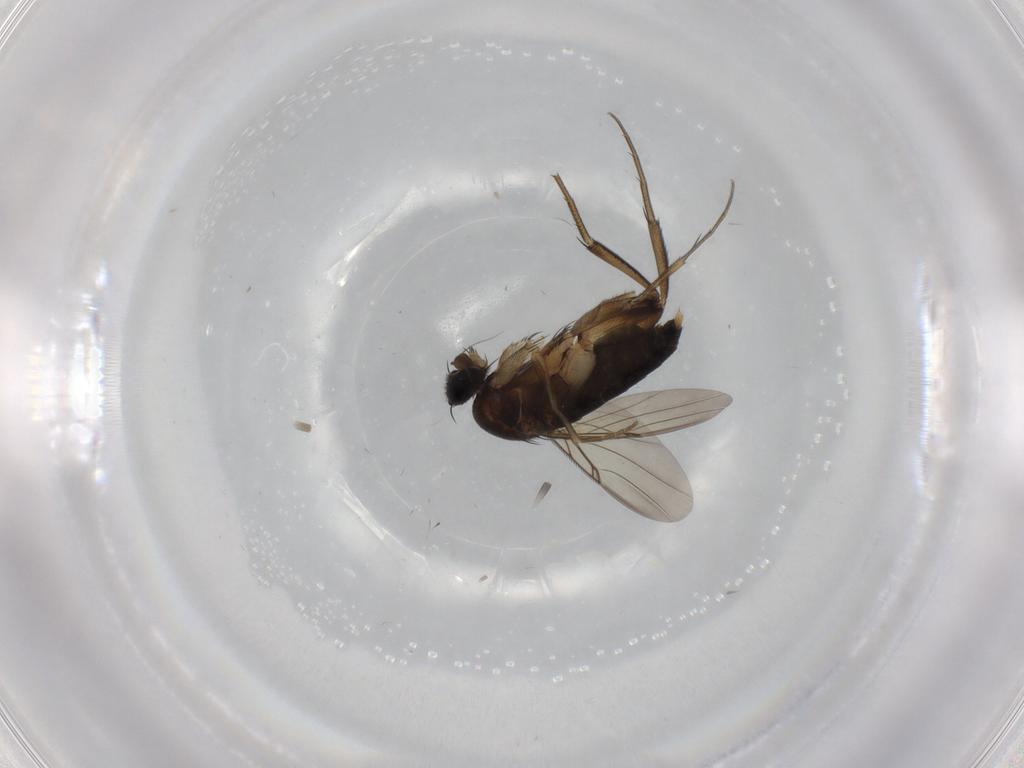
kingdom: Animalia
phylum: Arthropoda
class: Insecta
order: Diptera
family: Phoridae
